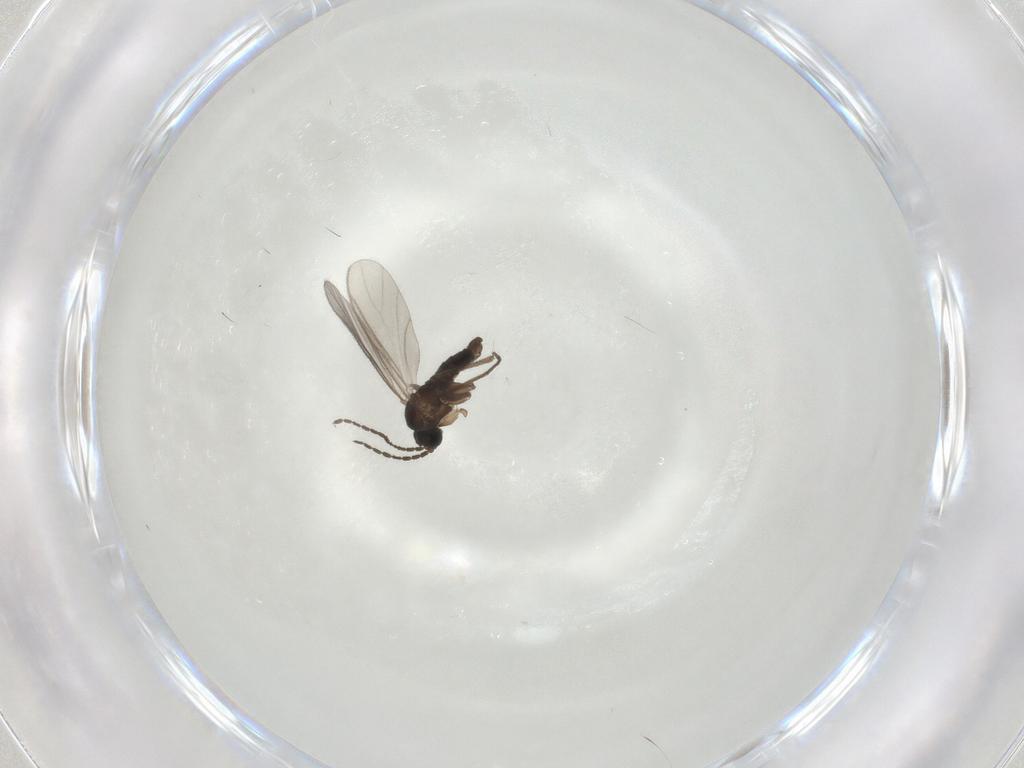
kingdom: Animalia
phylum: Arthropoda
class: Insecta
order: Diptera
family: Sciaridae
